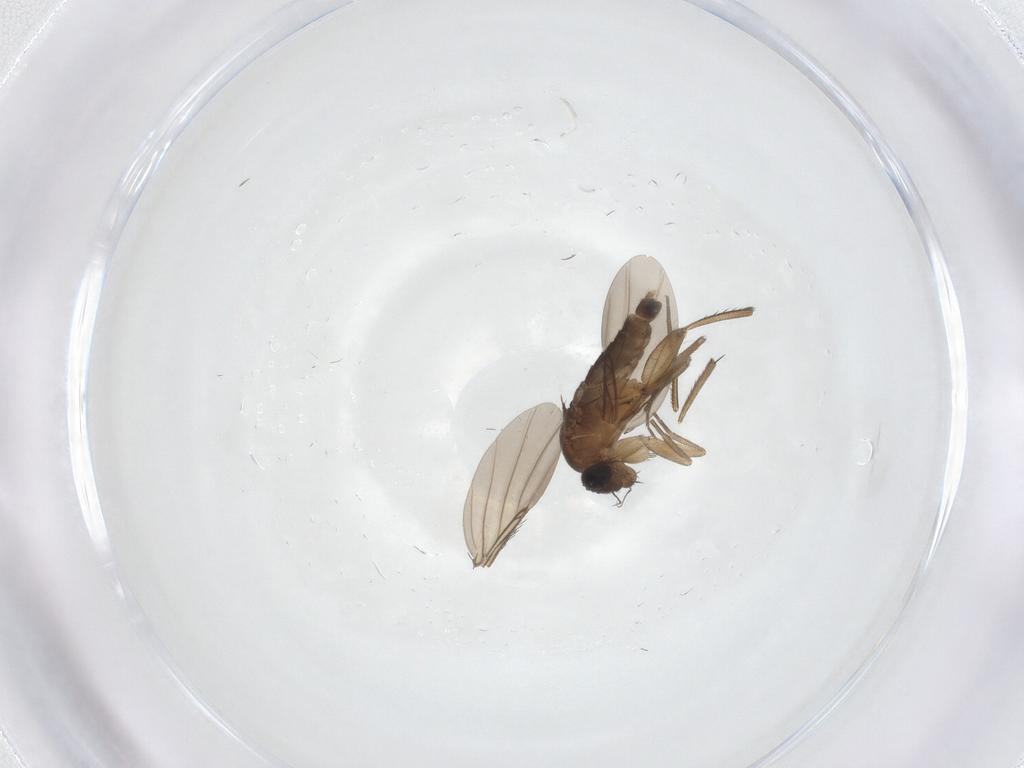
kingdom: Animalia
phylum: Arthropoda
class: Insecta
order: Diptera
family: Phoridae
